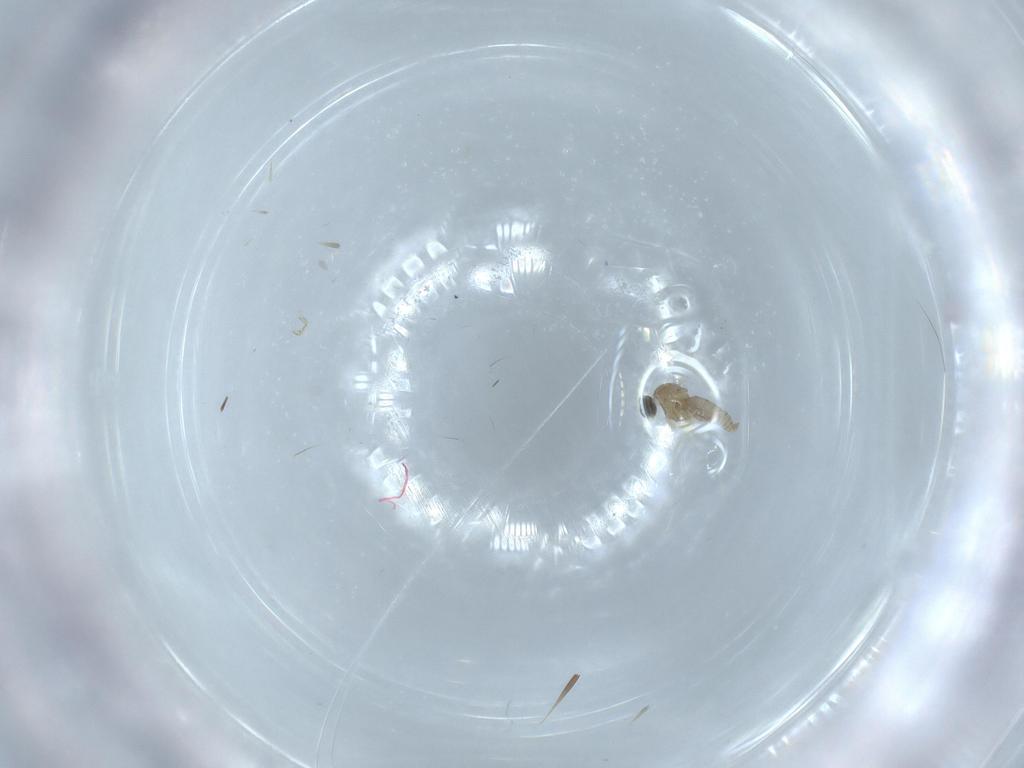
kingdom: Animalia
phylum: Arthropoda
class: Insecta
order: Diptera
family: Cecidomyiidae
